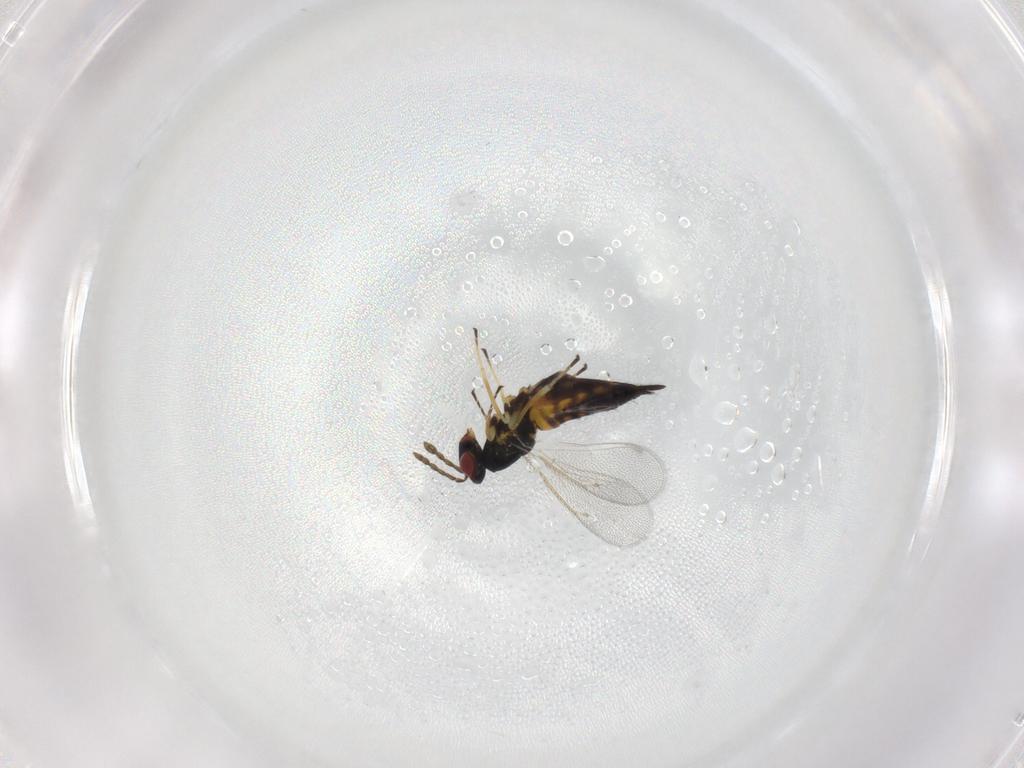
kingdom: Animalia
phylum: Arthropoda
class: Insecta
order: Hymenoptera
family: Eulophidae
